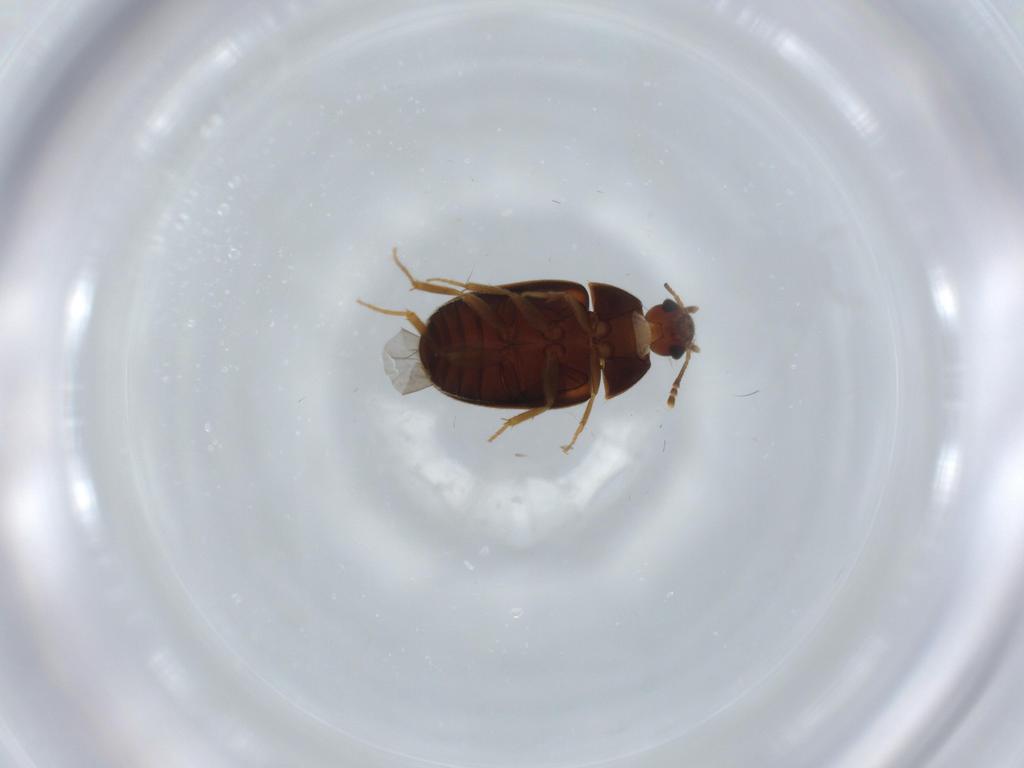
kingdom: Animalia
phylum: Arthropoda
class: Insecta
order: Coleoptera
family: Mycetophagidae
